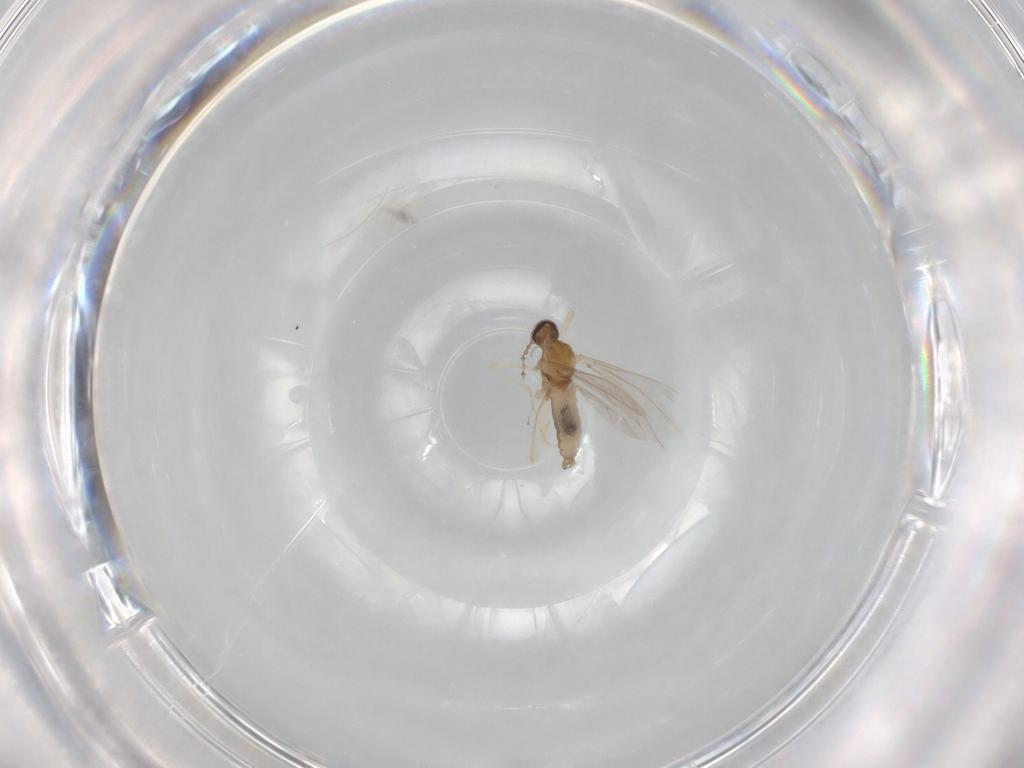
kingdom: Animalia
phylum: Arthropoda
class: Insecta
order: Diptera
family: Cecidomyiidae
